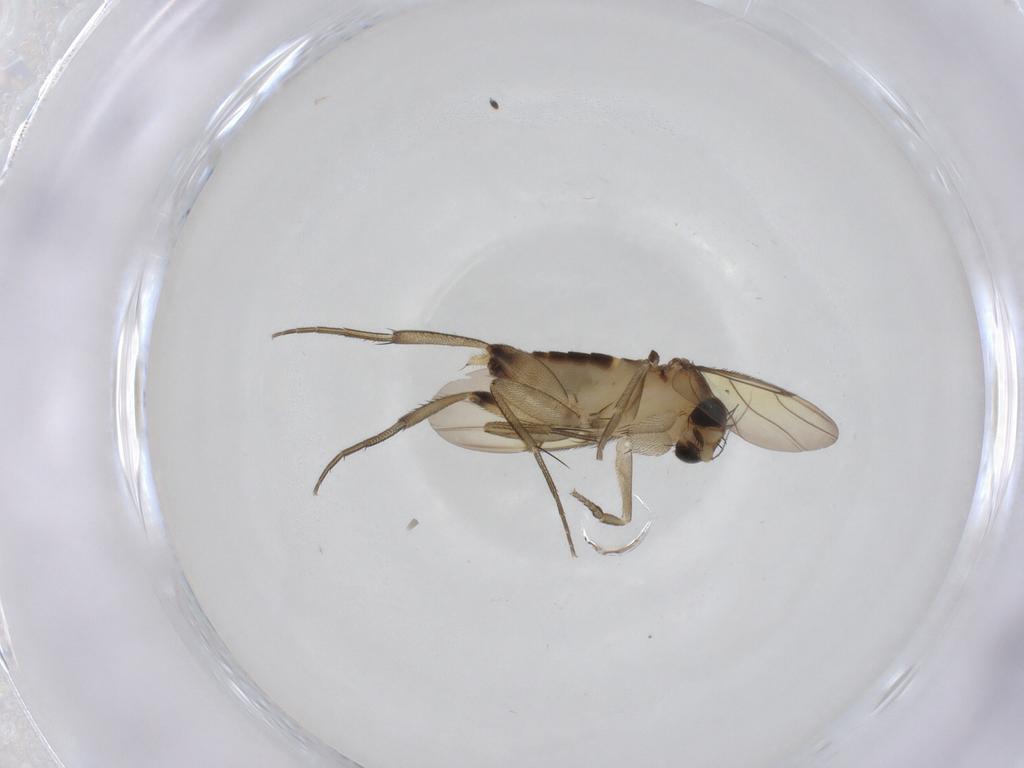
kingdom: Animalia
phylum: Arthropoda
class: Insecta
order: Diptera
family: Phoridae
